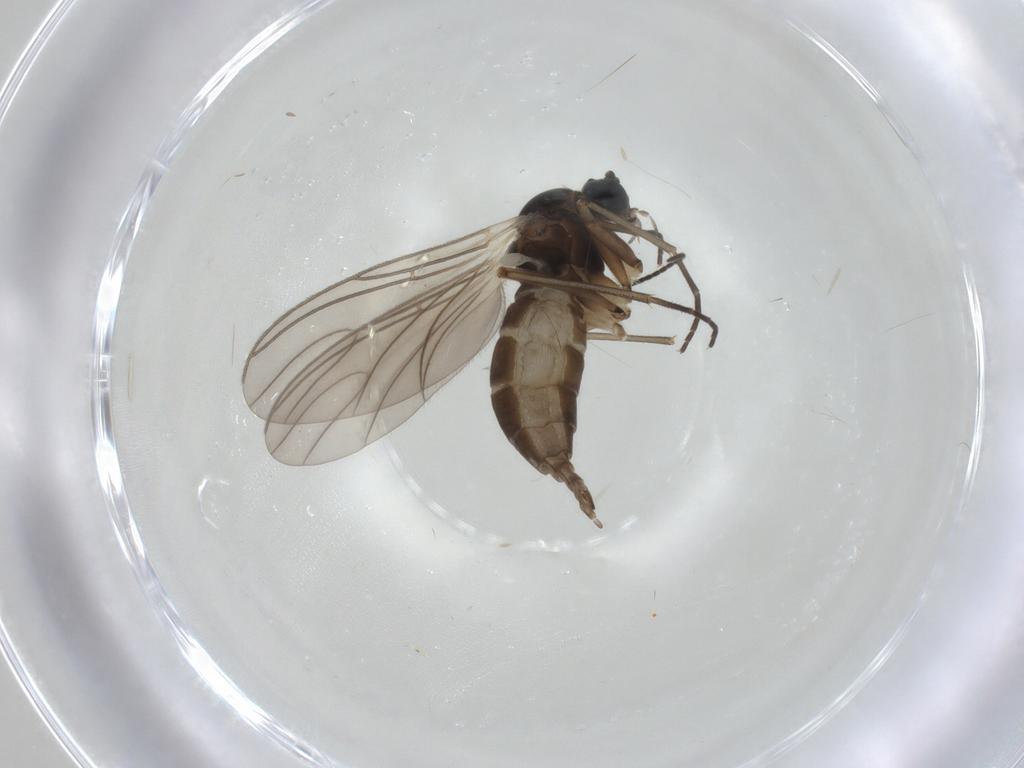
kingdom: Animalia
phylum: Arthropoda
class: Insecta
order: Diptera
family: Sciaridae
